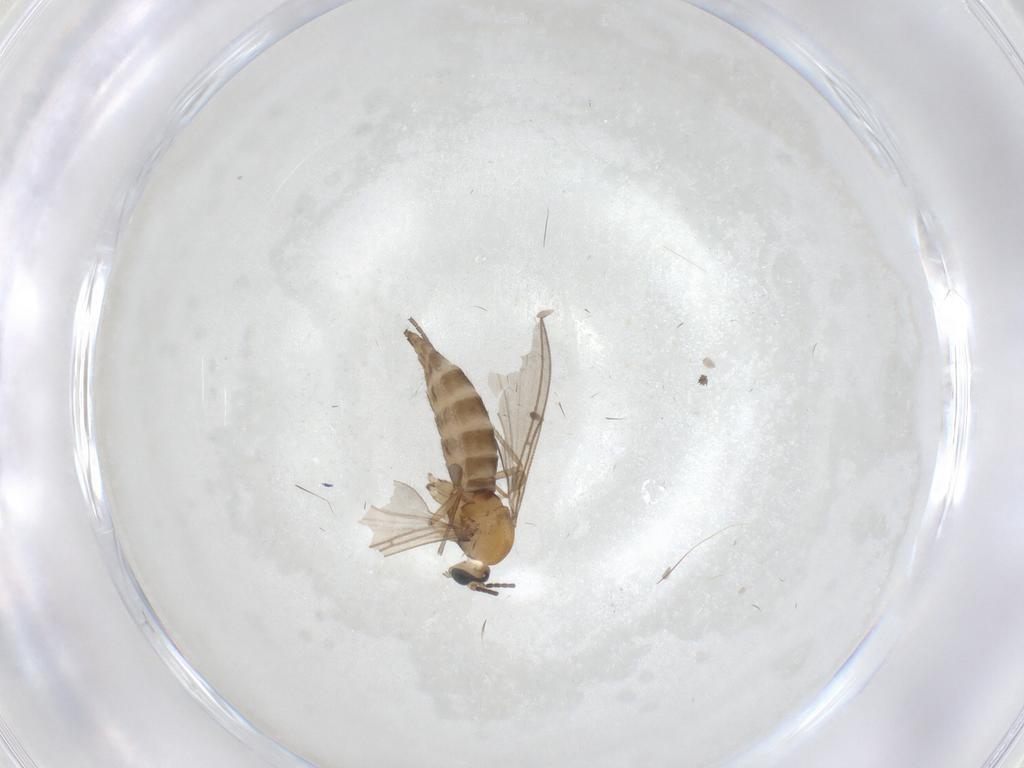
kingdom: Animalia
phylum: Arthropoda
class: Insecta
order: Diptera
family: Sciaridae
